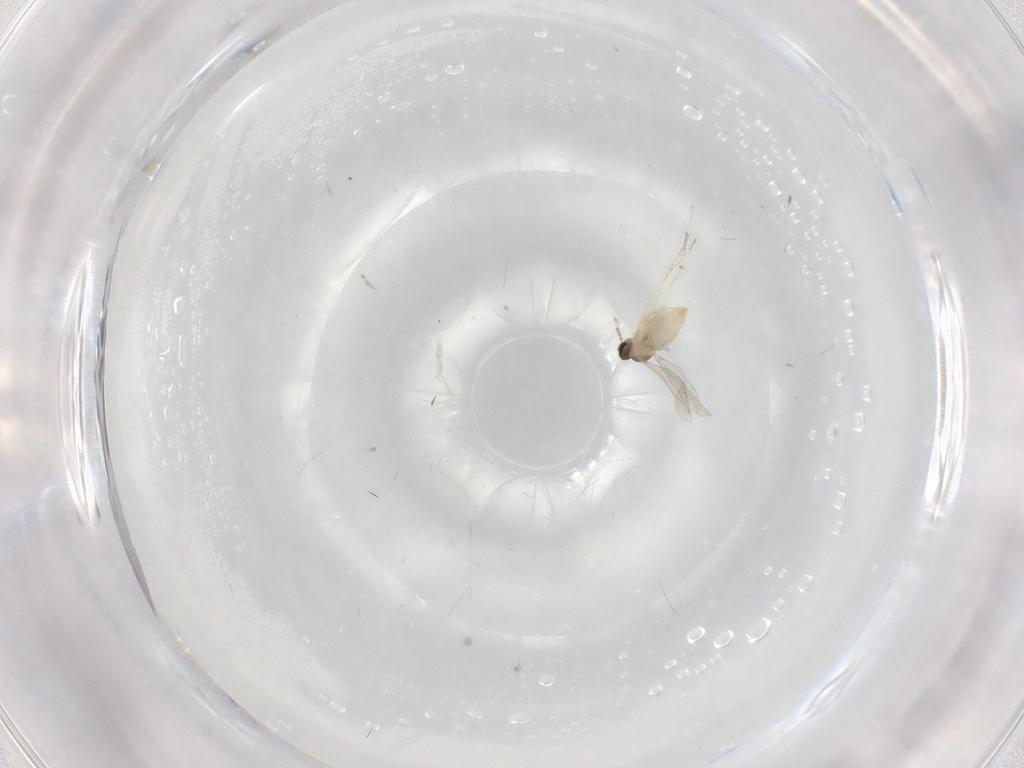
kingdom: Animalia
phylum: Arthropoda
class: Insecta
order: Diptera
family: Cecidomyiidae
